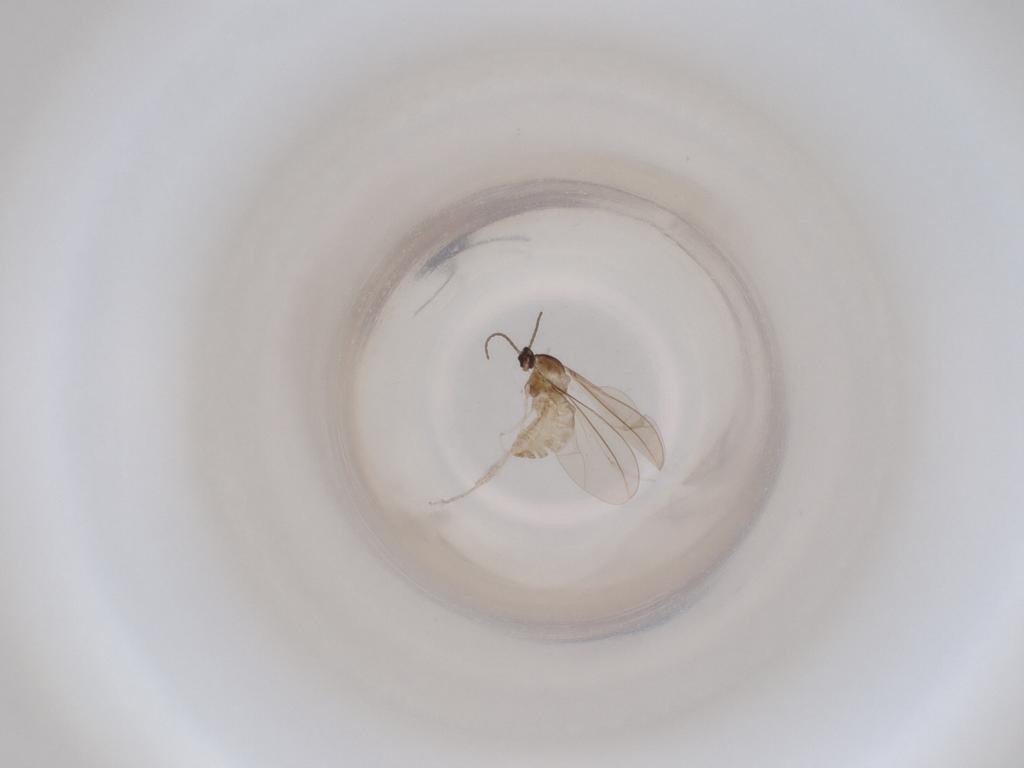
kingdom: Animalia
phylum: Arthropoda
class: Insecta
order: Diptera
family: Cecidomyiidae
